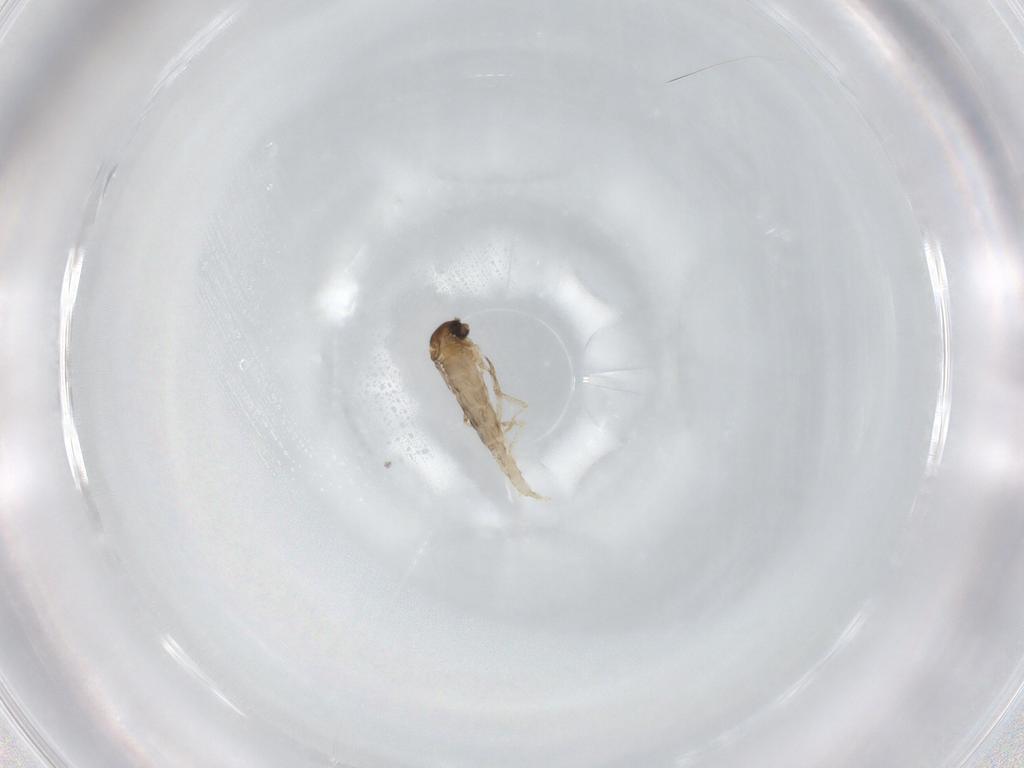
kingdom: Animalia
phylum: Arthropoda
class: Insecta
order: Diptera
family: Cecidomyiidae
